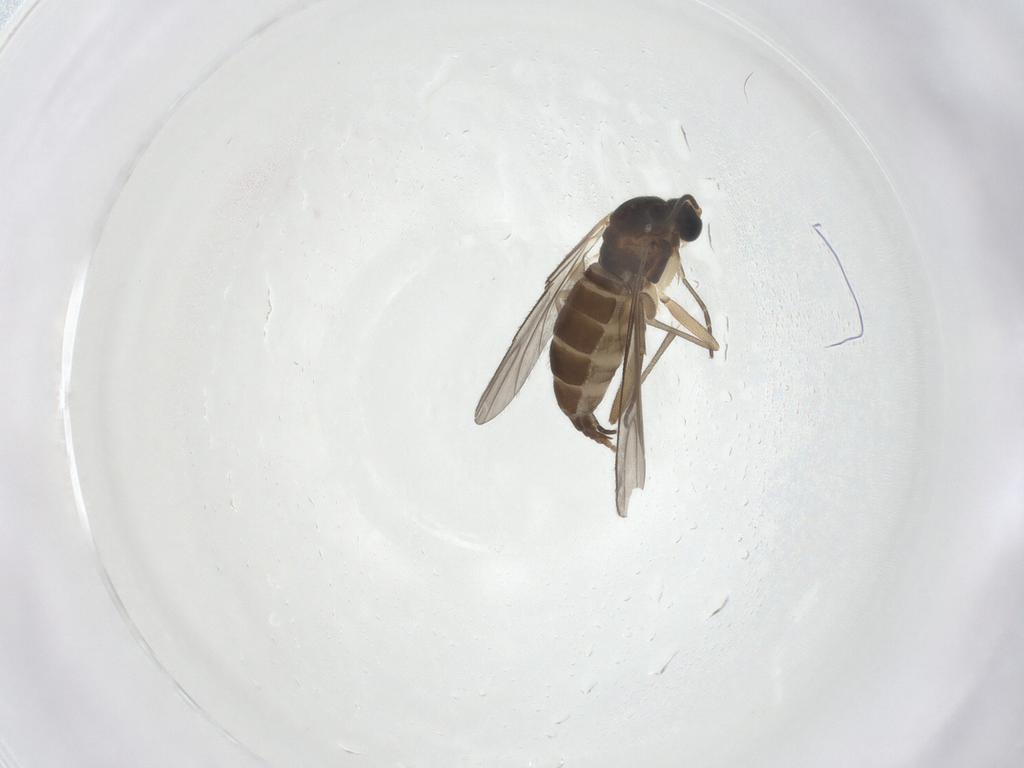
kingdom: Animalia
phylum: Arthropoda
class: Insecta
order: Diptera
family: Sciaridae
